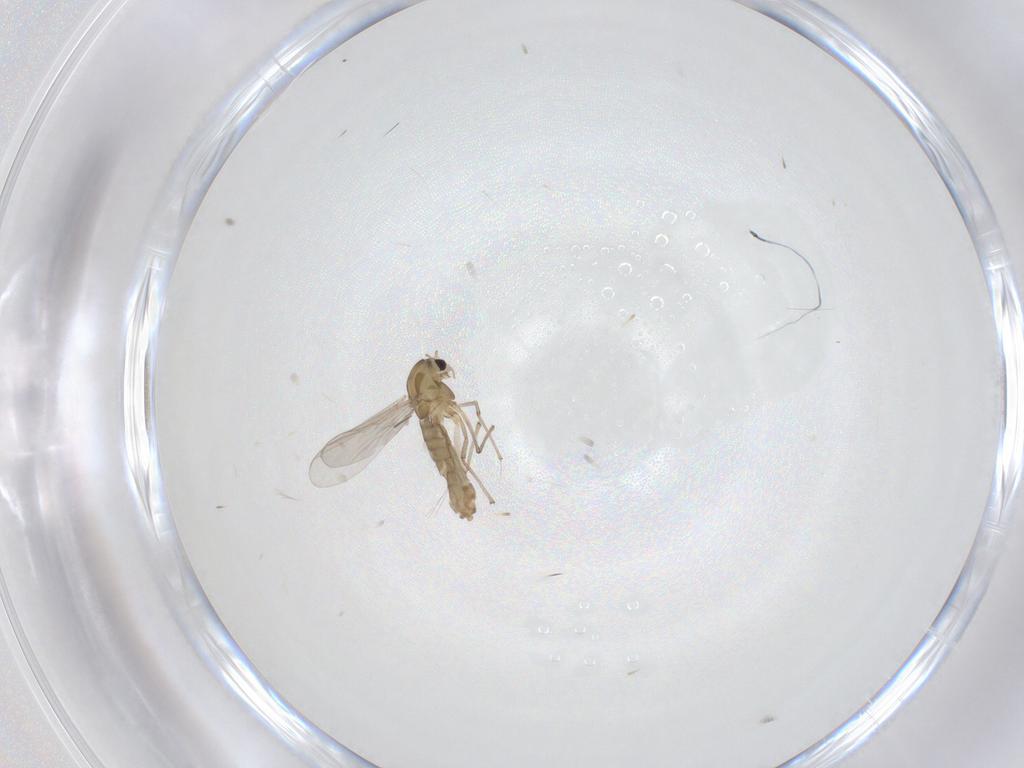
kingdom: Animalia
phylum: Arthropoda
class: Insecta
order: Diptera
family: Chironomidae
